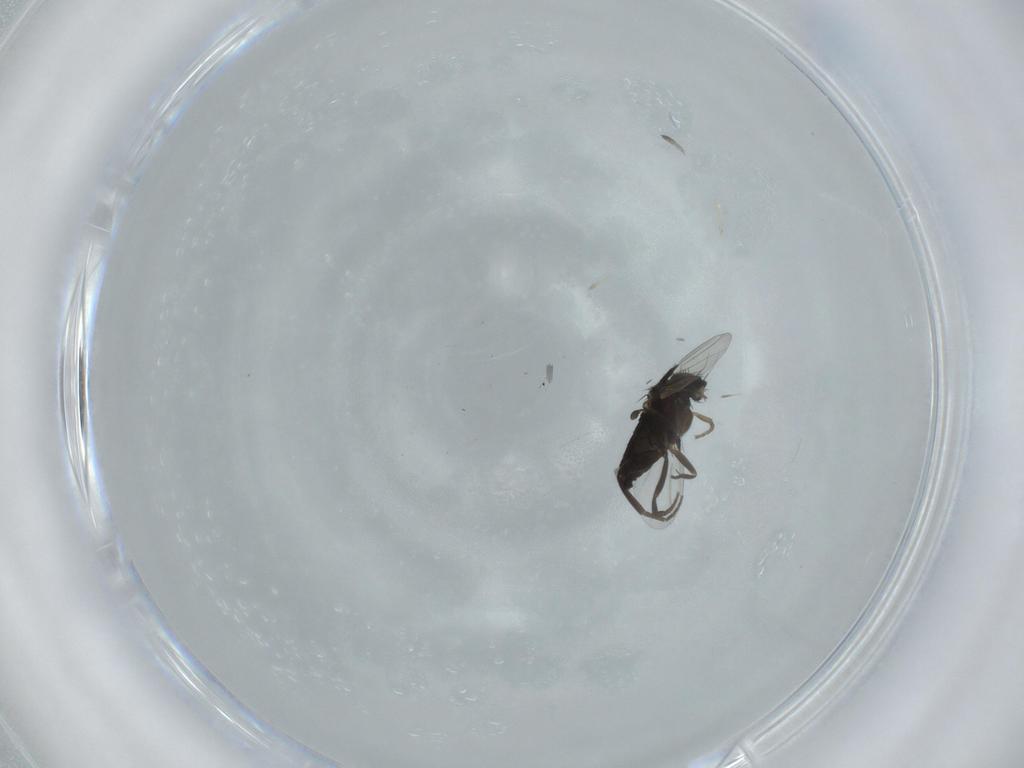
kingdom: Animalia
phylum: Arthropoda
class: Insecta
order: Diptera
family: Phoridae
